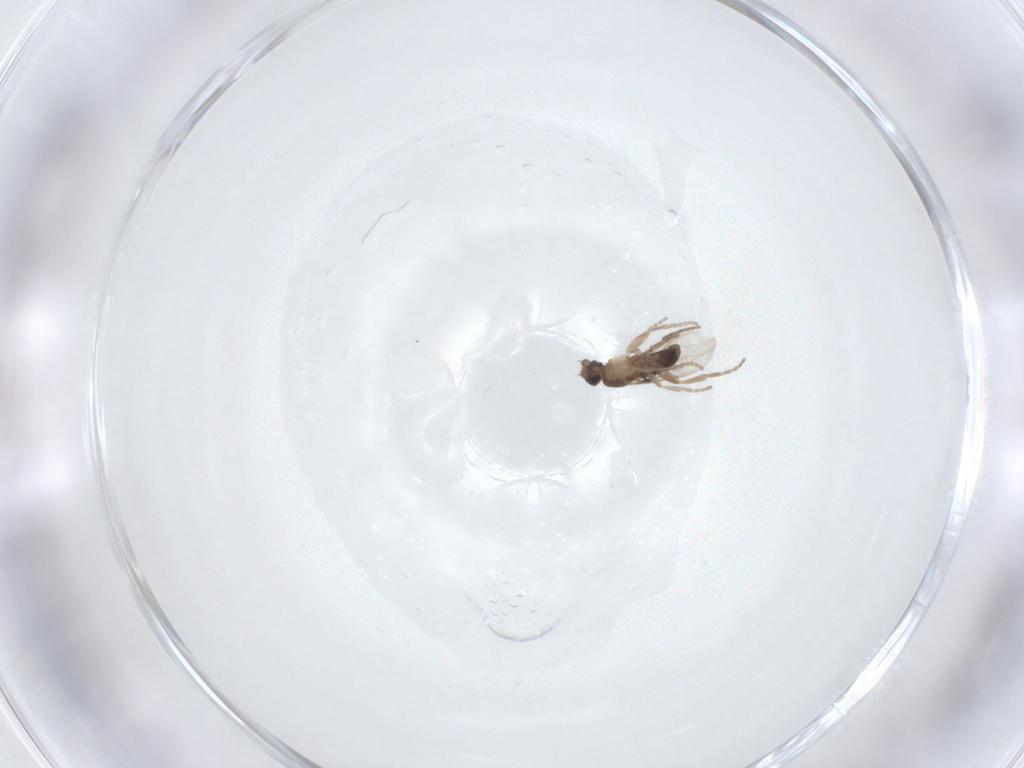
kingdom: Animalia
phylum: Arthropoda
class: Insecta
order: Diptera
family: Phoridae
